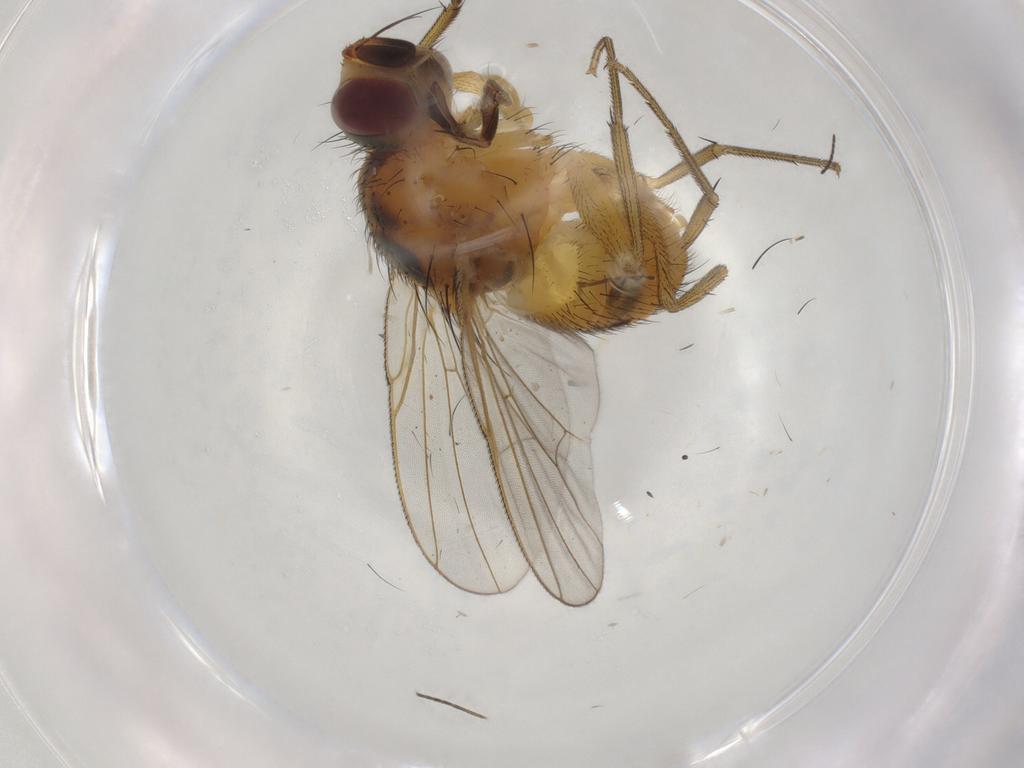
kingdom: Animalia
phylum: Arthropoda
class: Insecta
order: Diptera
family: Muscidae
